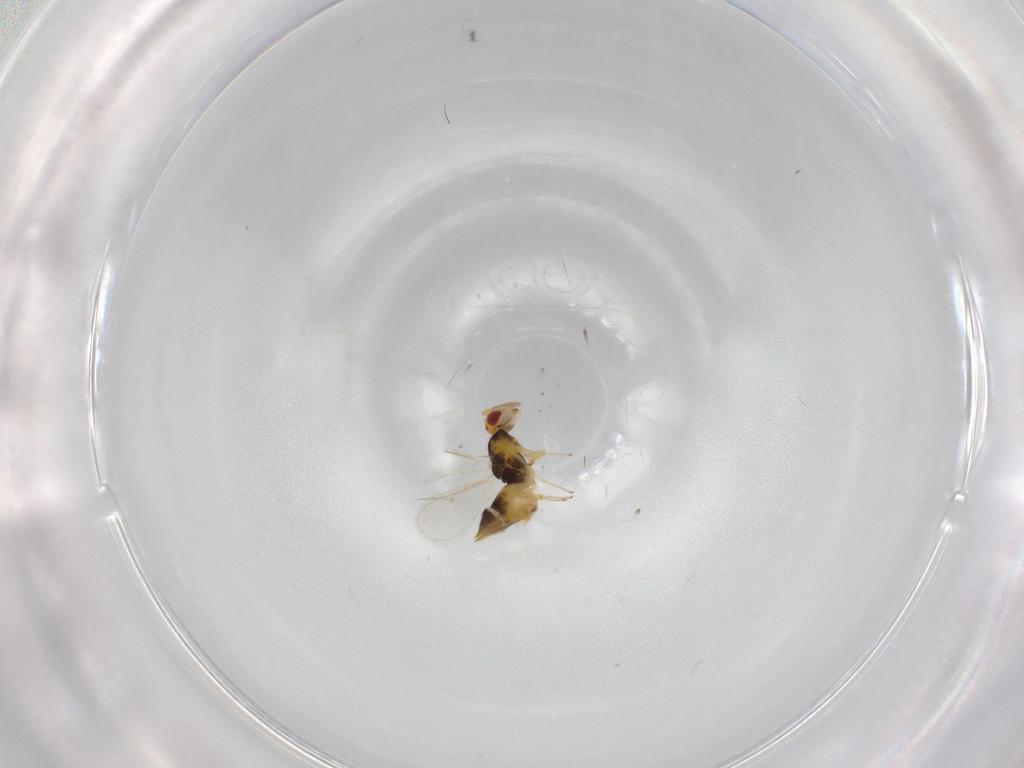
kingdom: Animalia
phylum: Arthropoda
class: Insecta
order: Hymenoptera
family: Eulophidae
